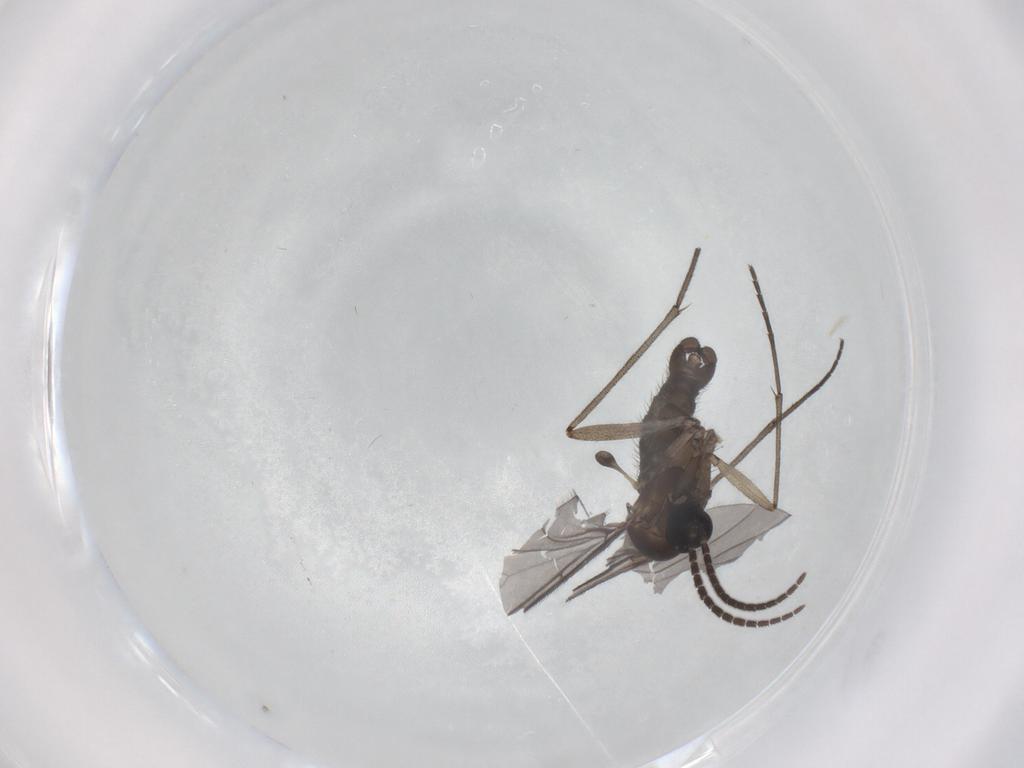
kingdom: Animalia
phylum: Arthropoda
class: Insecta
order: Diptera
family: Sciaridae
